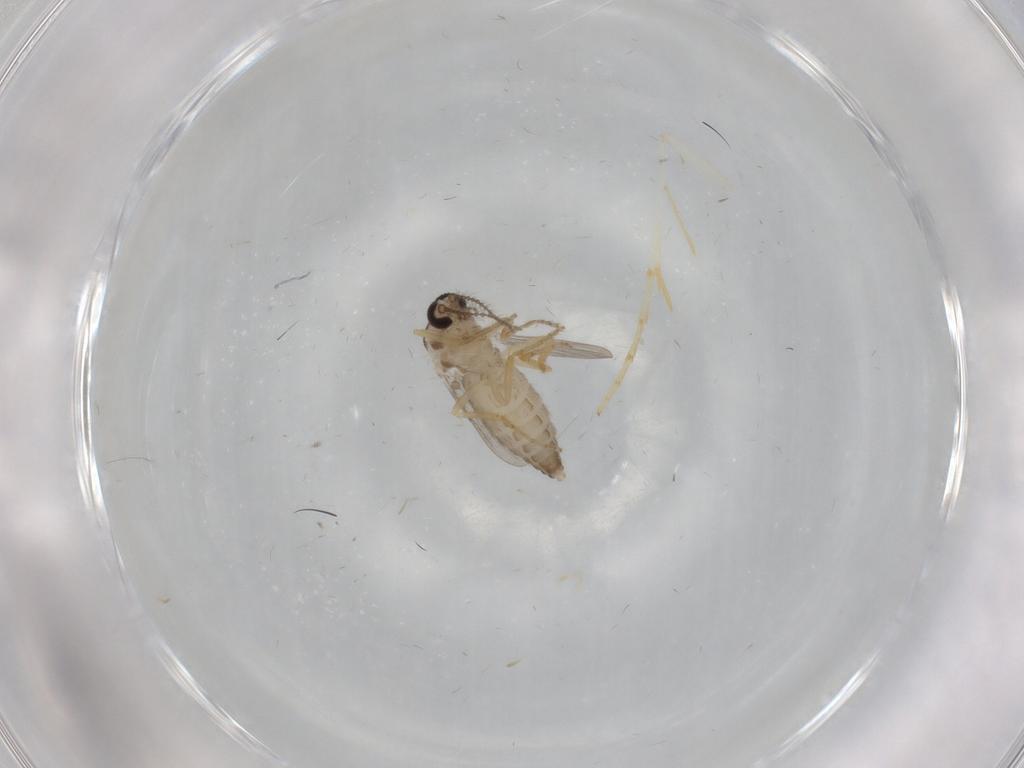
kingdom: Animalia
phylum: Arthropoda
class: Insecta
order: Diptera
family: Ceratopogonidae
